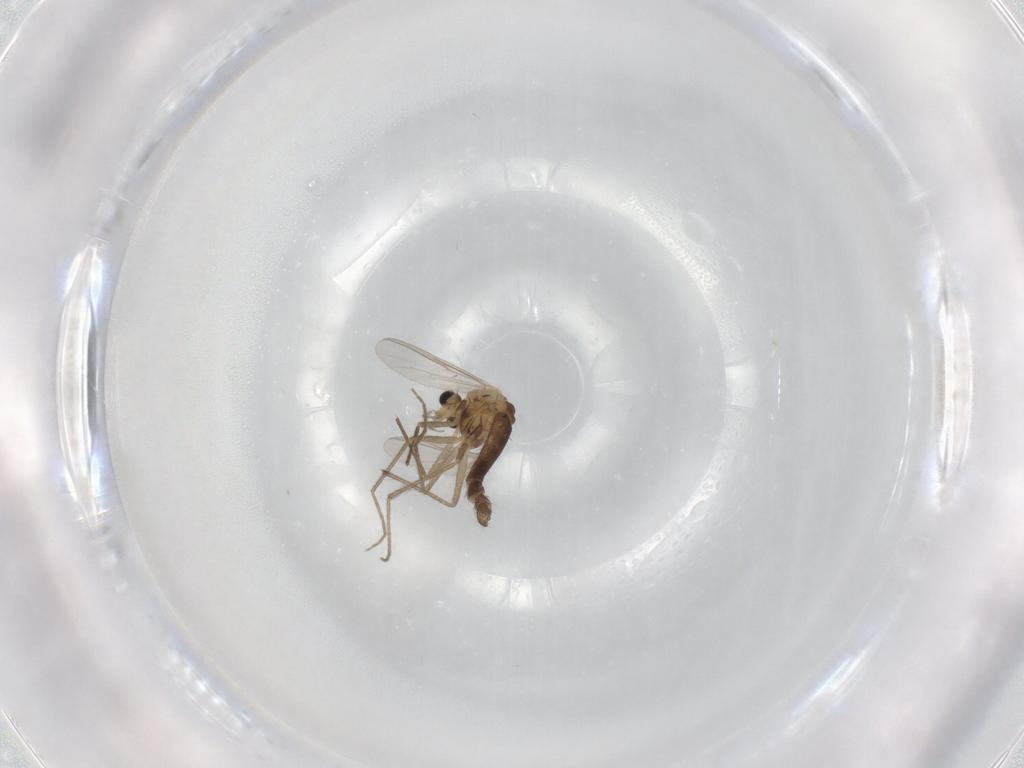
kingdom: Animalia
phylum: Arthropoda
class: Insecta
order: Diptera
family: Chironomidae
